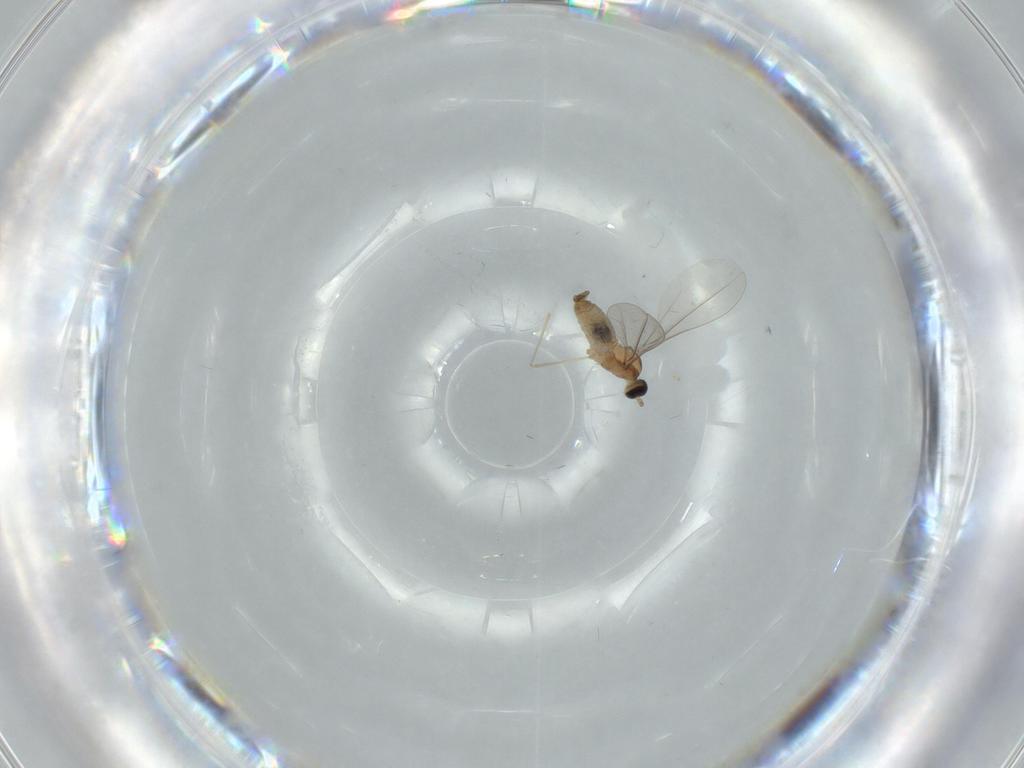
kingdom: Animalia
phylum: Arthropoda
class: Insecta
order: Diptera
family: Cecidomyiidae
